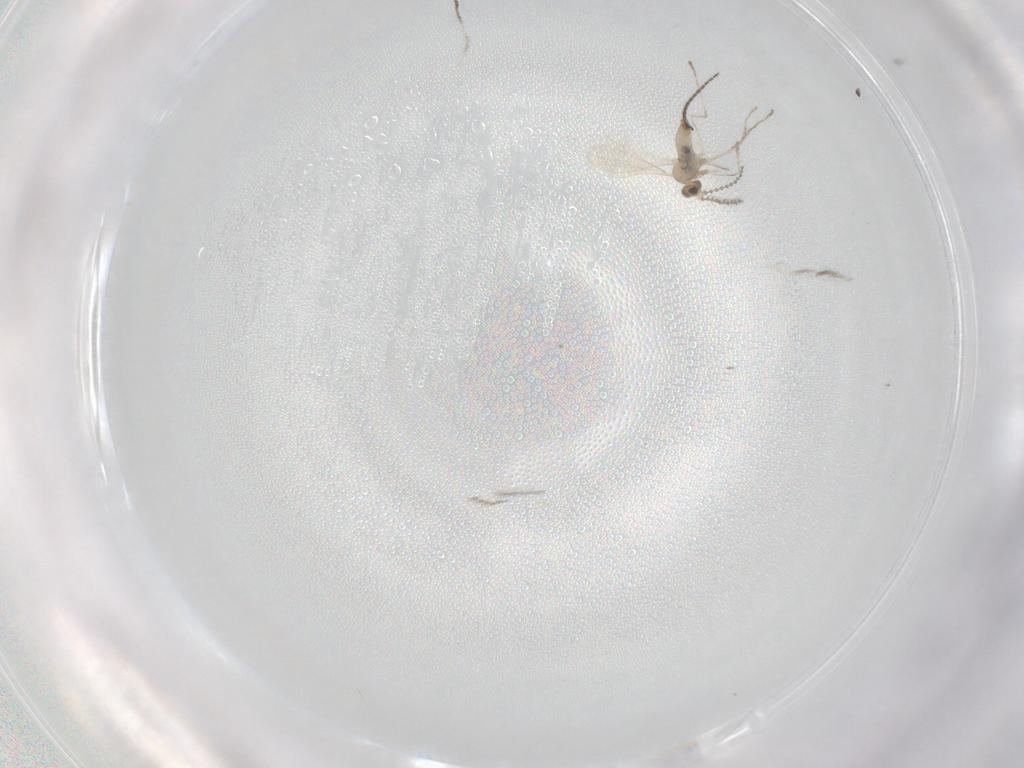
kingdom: Animalia
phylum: Arthropoda
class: Insecta
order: Diptera
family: Cecidomyiidae
